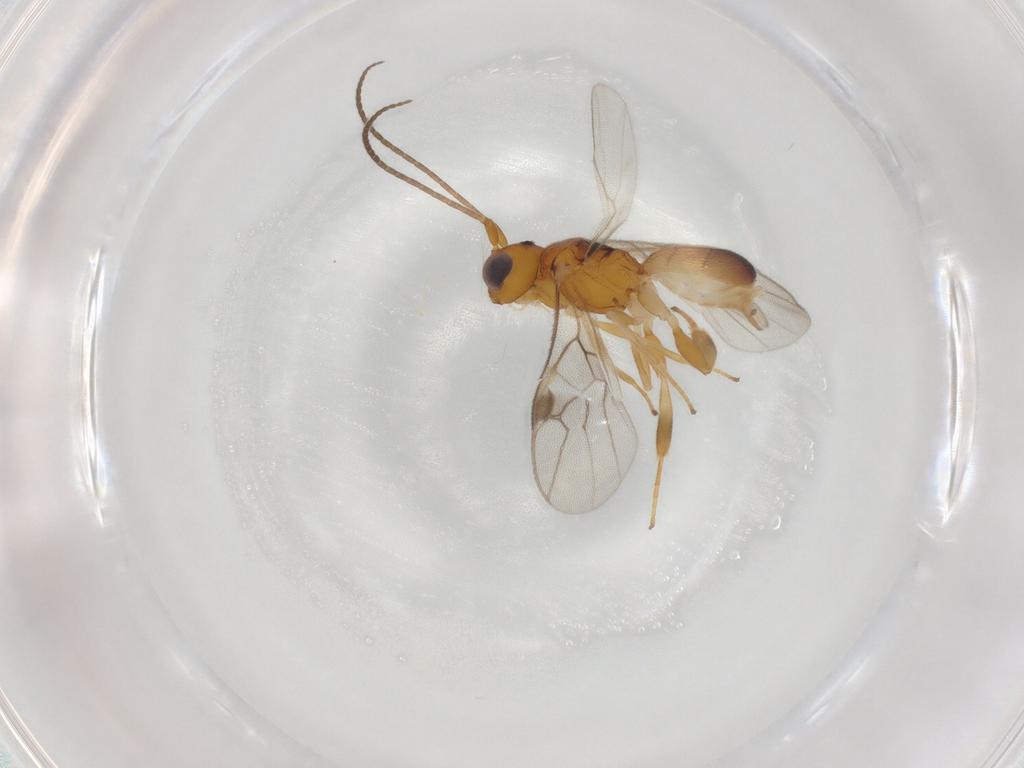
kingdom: Animalia
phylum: Arthropoda
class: Insecta
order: Hymenoptera
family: Braconidae
